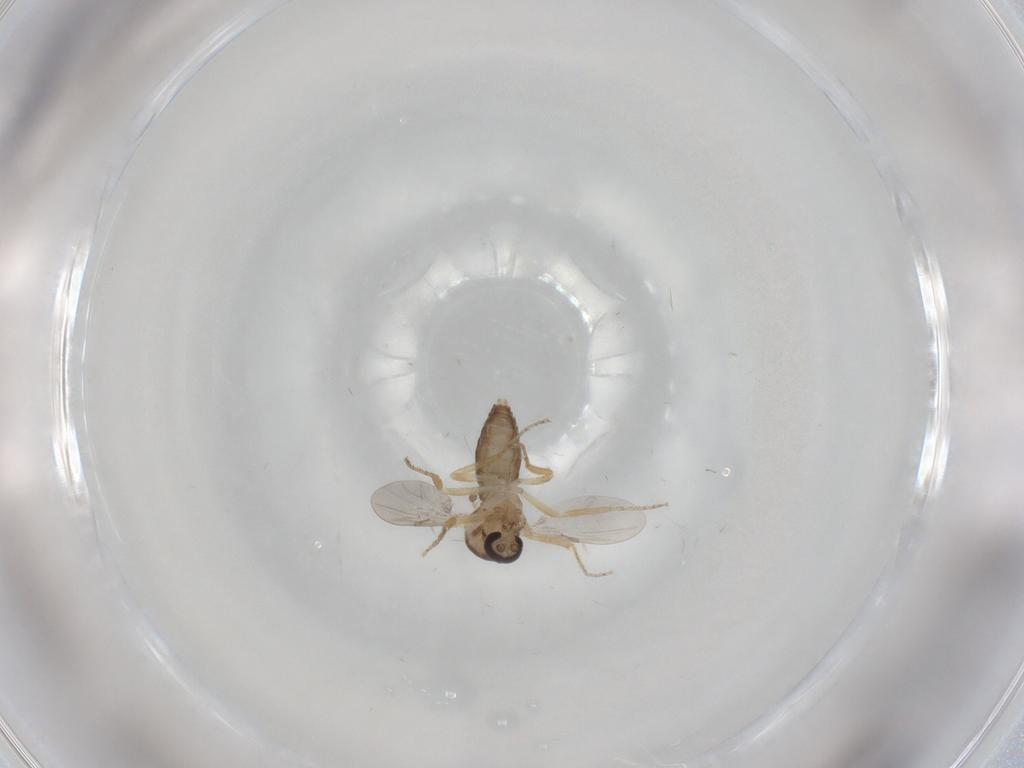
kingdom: Animalia
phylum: Arthropoda
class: Insecta
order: Diptera
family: Ceratopogonidae
